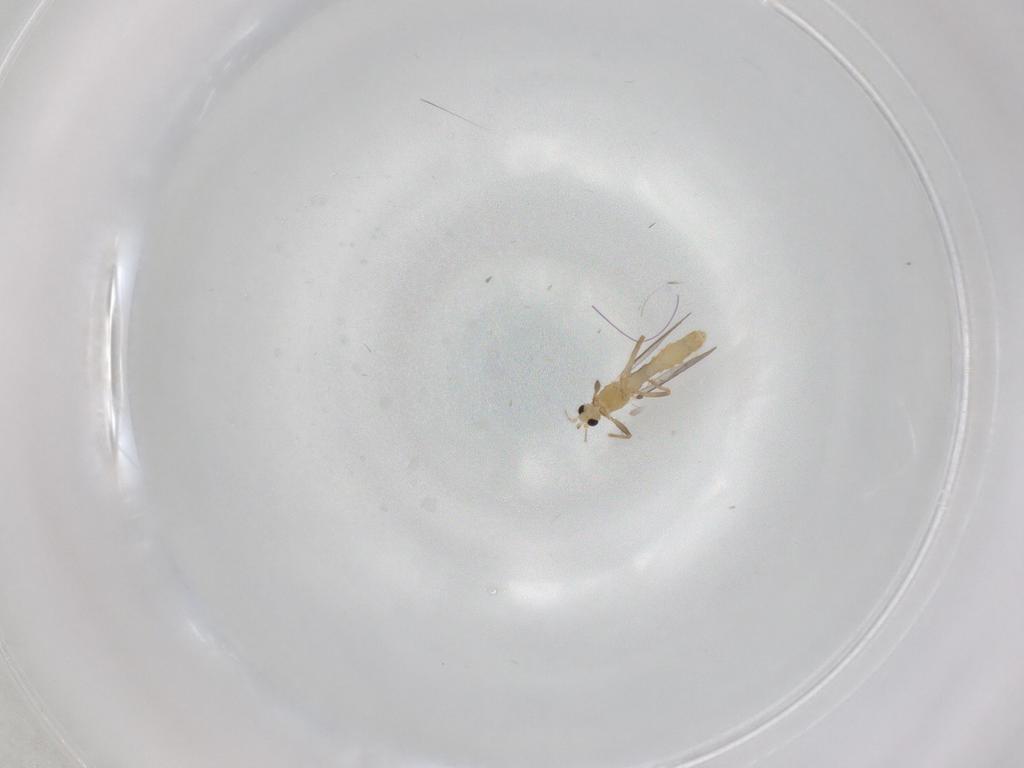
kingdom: Animalia
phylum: Arthropoda
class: Insecta
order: Diptera
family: Chironomidae
